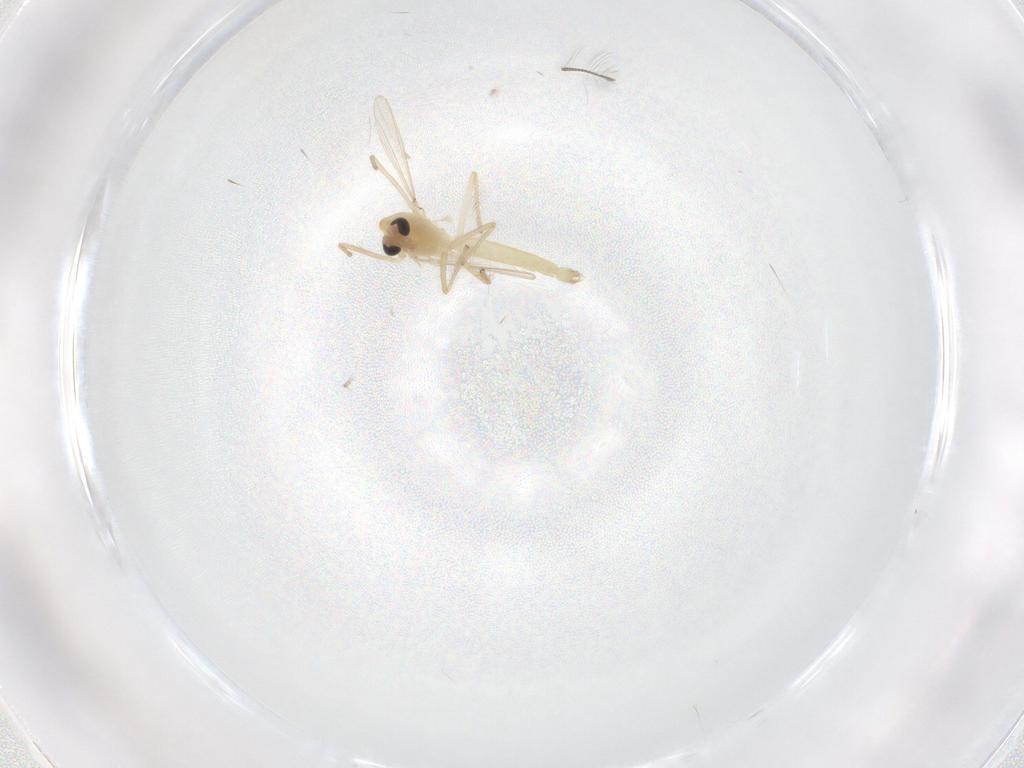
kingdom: Animalia
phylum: Arthropoda
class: Insecta
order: Diptera
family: Chironomidae
